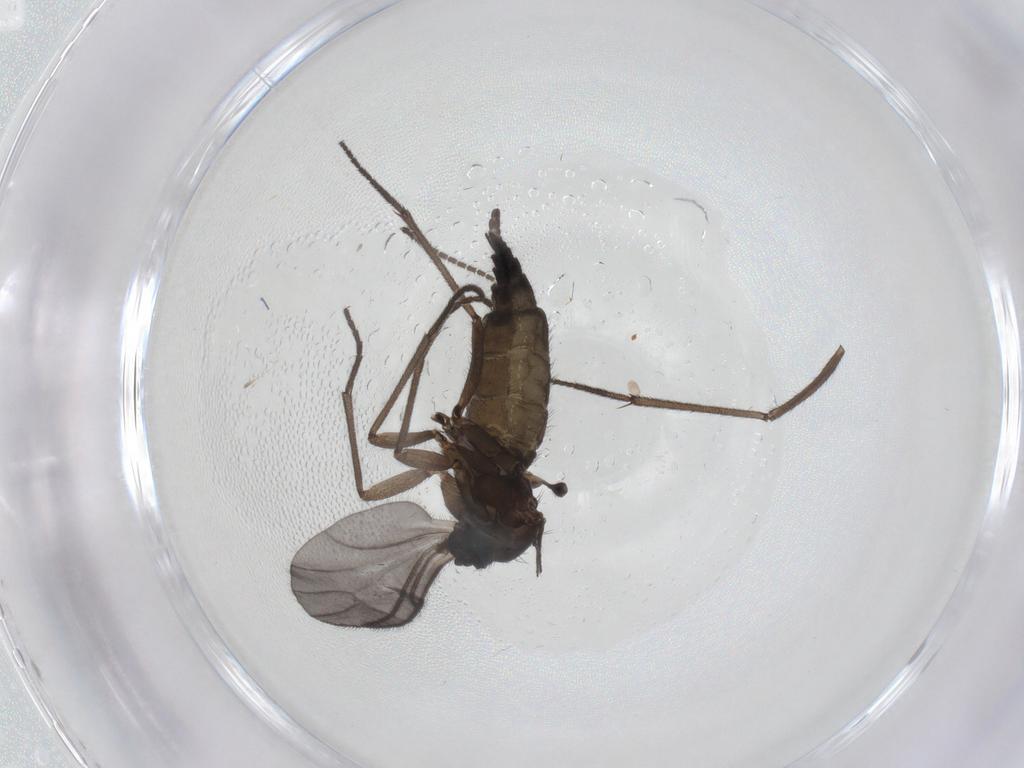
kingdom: Animalia
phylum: Arthropoda
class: Insecta
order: Diptera
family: Sciaridae
